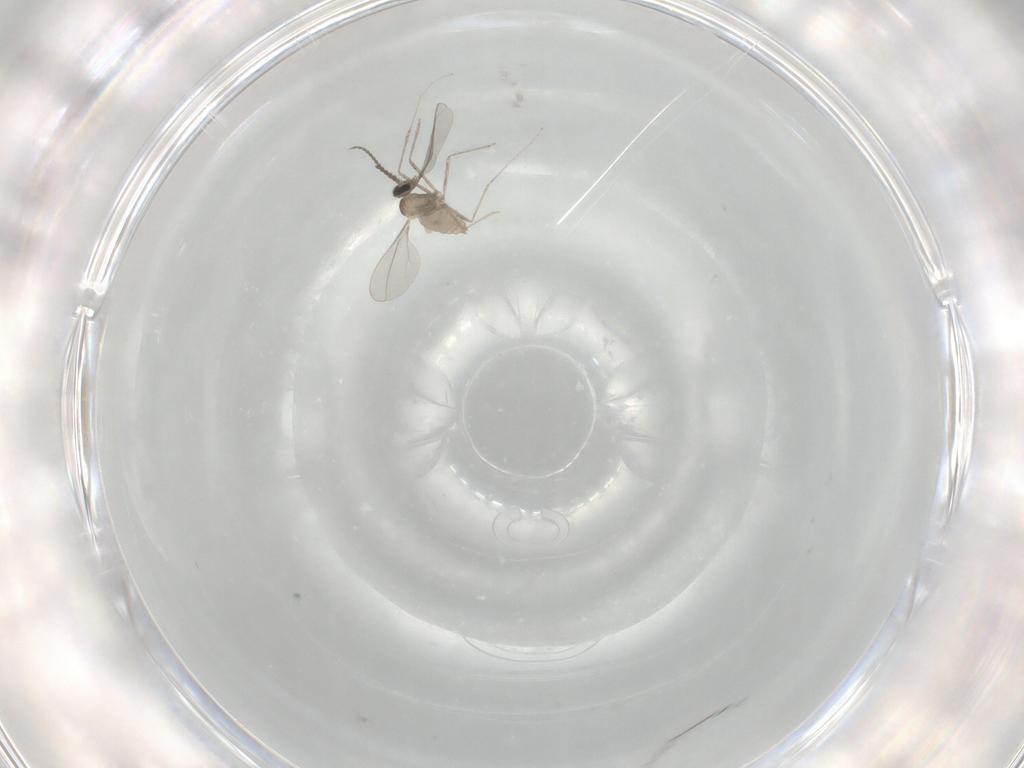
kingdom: Animalia
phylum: Arthropoda
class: Insecta
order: Diptera
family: Cecidomyiidae
